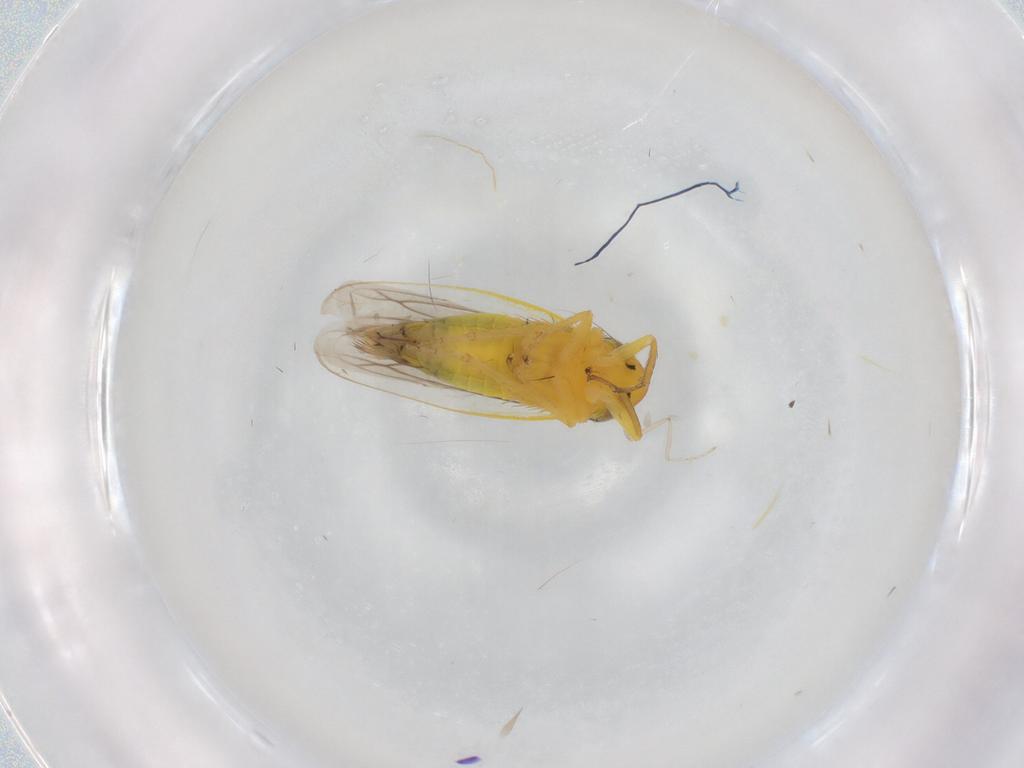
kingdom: Animalia
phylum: Arthropoda
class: Insecta
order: Hemiptera
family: Cicadellidae
